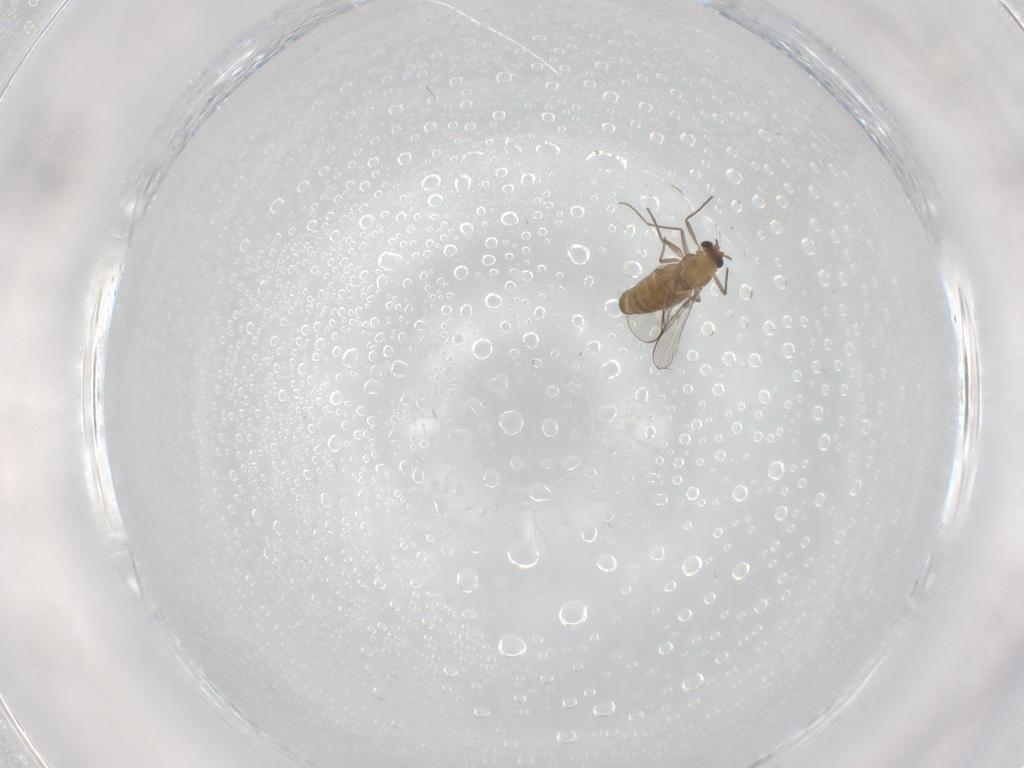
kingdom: Animalia
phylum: Arthropoda
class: Insecta
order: Diptera
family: Chironomidae
